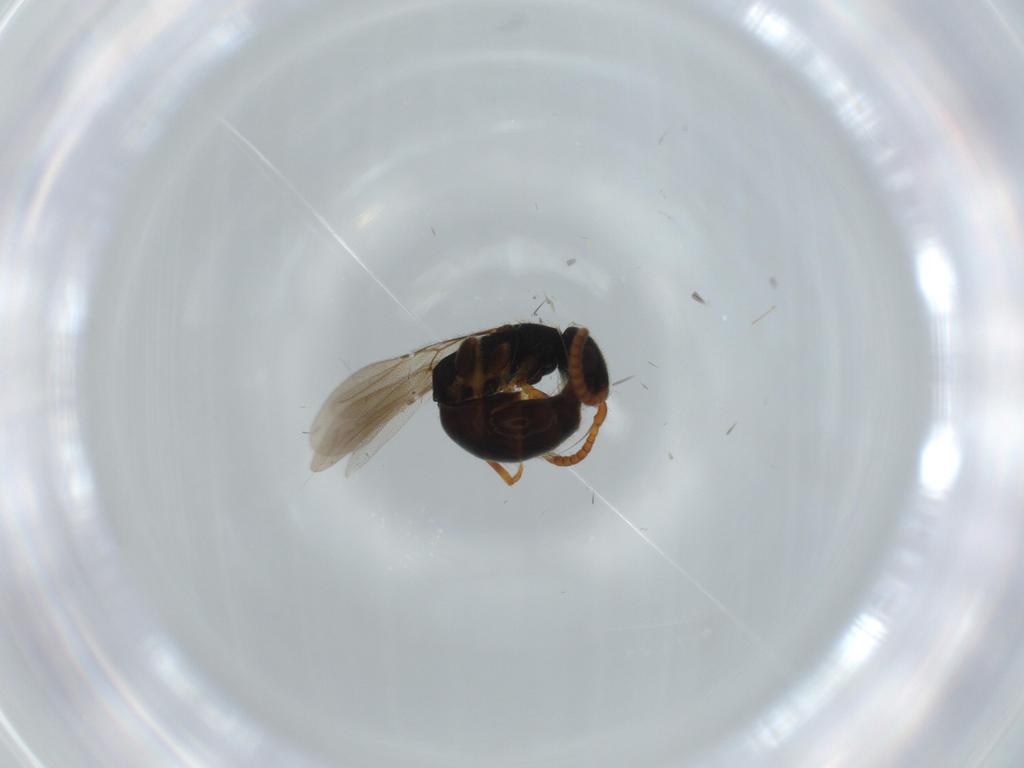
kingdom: Animalia
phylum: Arthropoda
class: Insecta
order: Hymenoptera
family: Bethylidae
